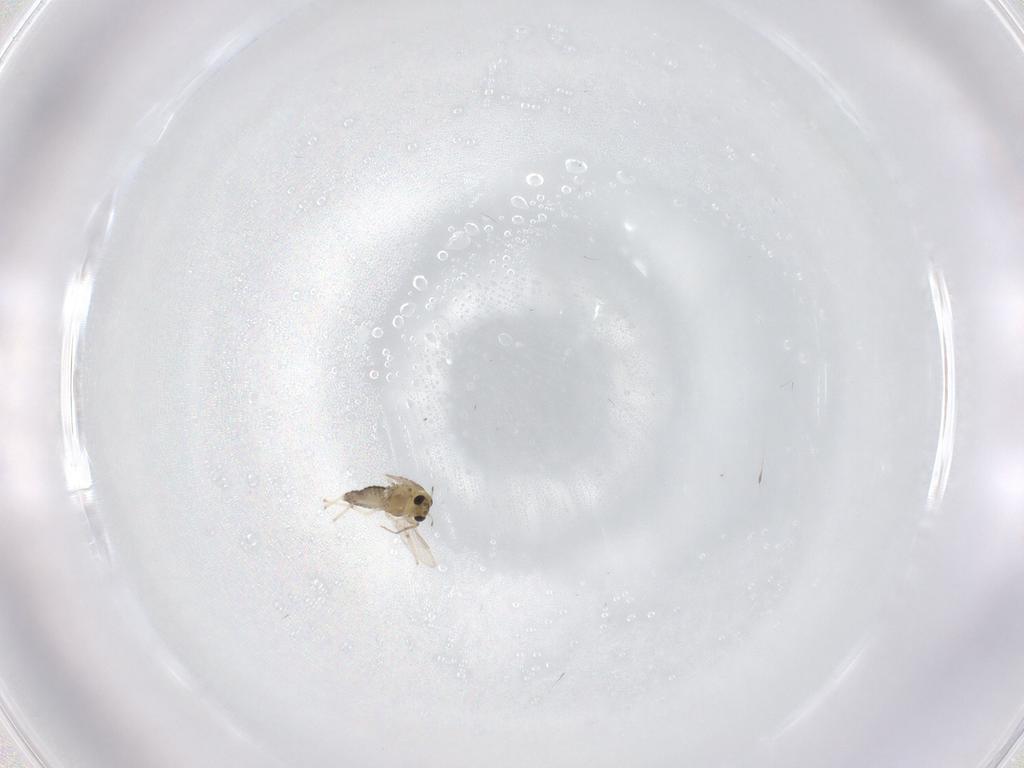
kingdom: Animalia
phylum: Arthropoda
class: Insecta
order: Diptera
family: Chironomidae
